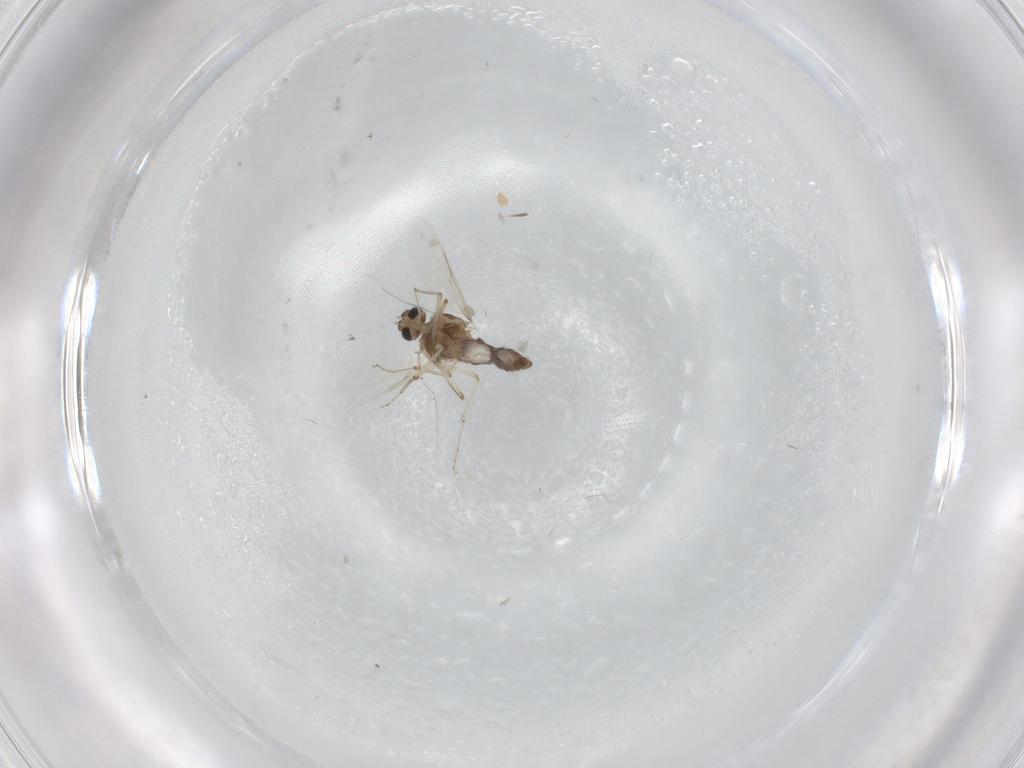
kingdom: Animalia
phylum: Arthropoda
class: Insecta
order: Diptera
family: Ceratopogonidae
